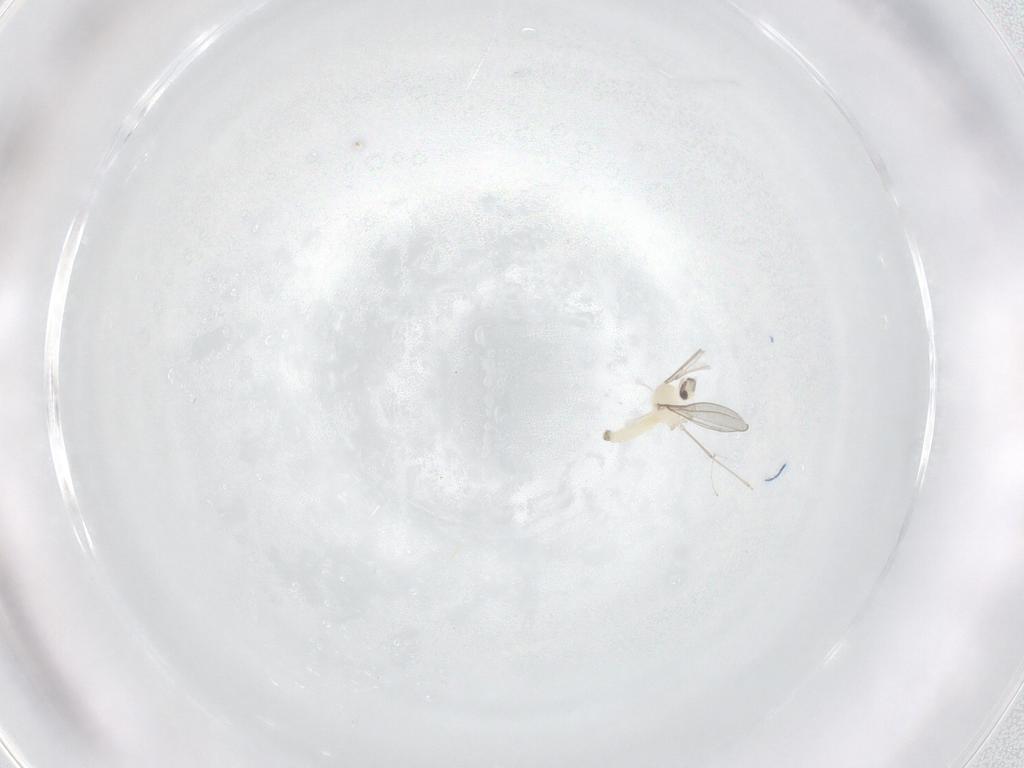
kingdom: Animalia
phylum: Arthropoda
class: Insecta
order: Diptera
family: Cecidomyiidae
